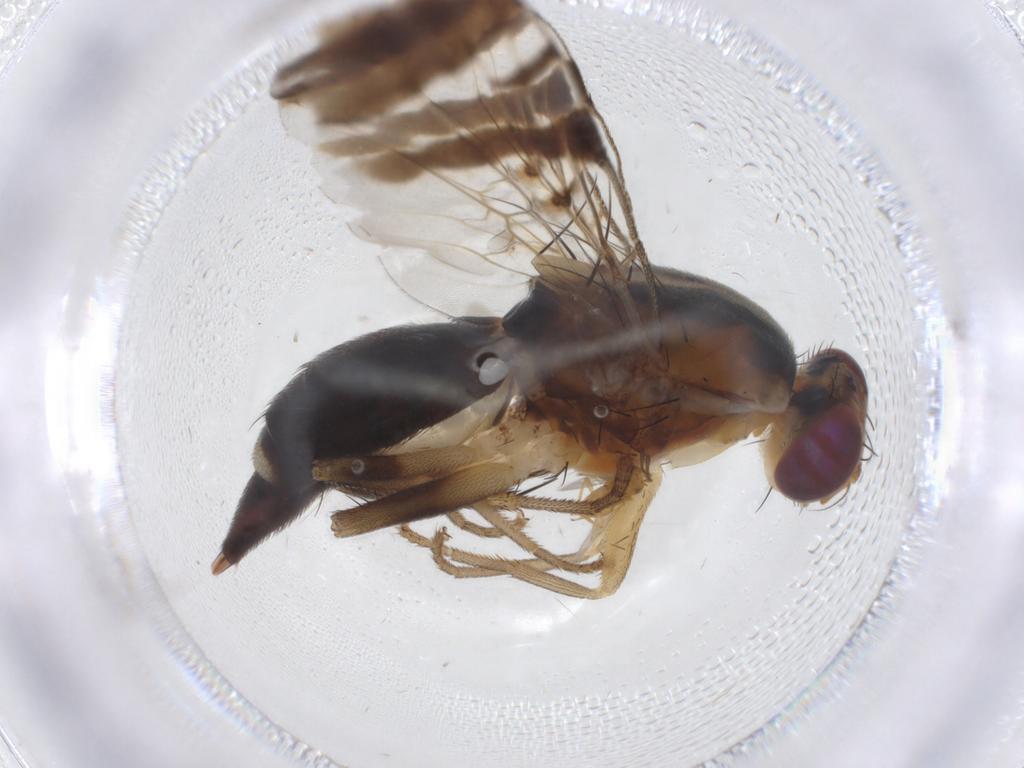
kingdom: Animalia
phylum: Arthropoda
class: Insecta
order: Diptera
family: Tephritidae
